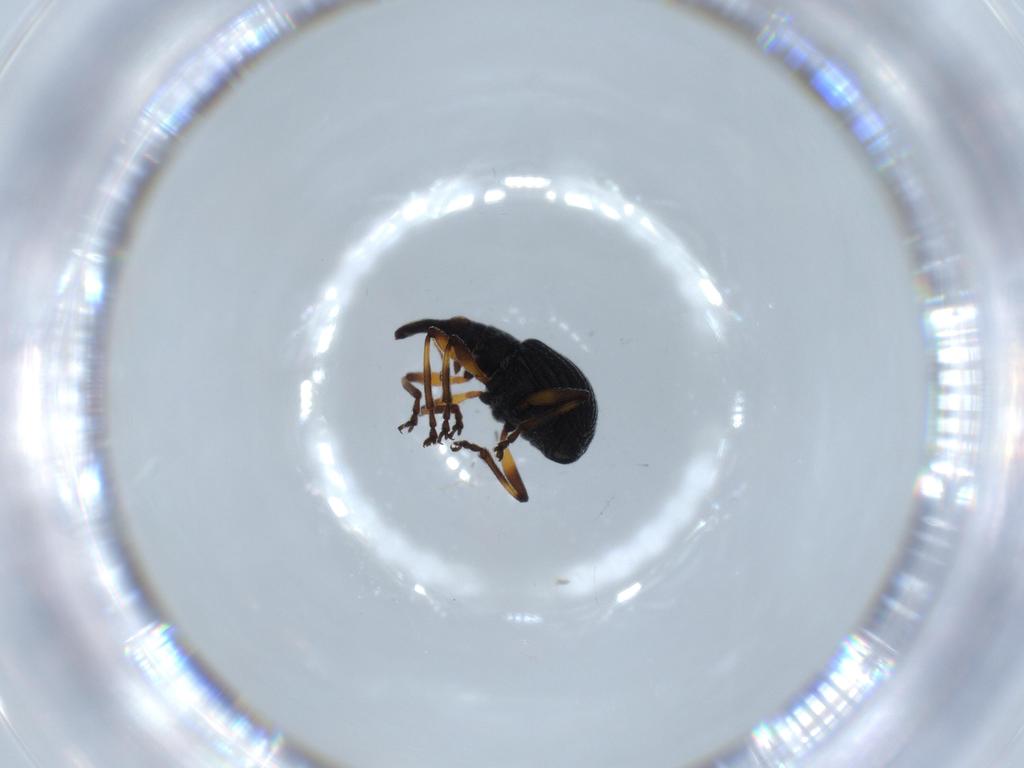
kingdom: Animalia
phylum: Arthropoda
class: Insecta
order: Coleoptera
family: Brentidae
